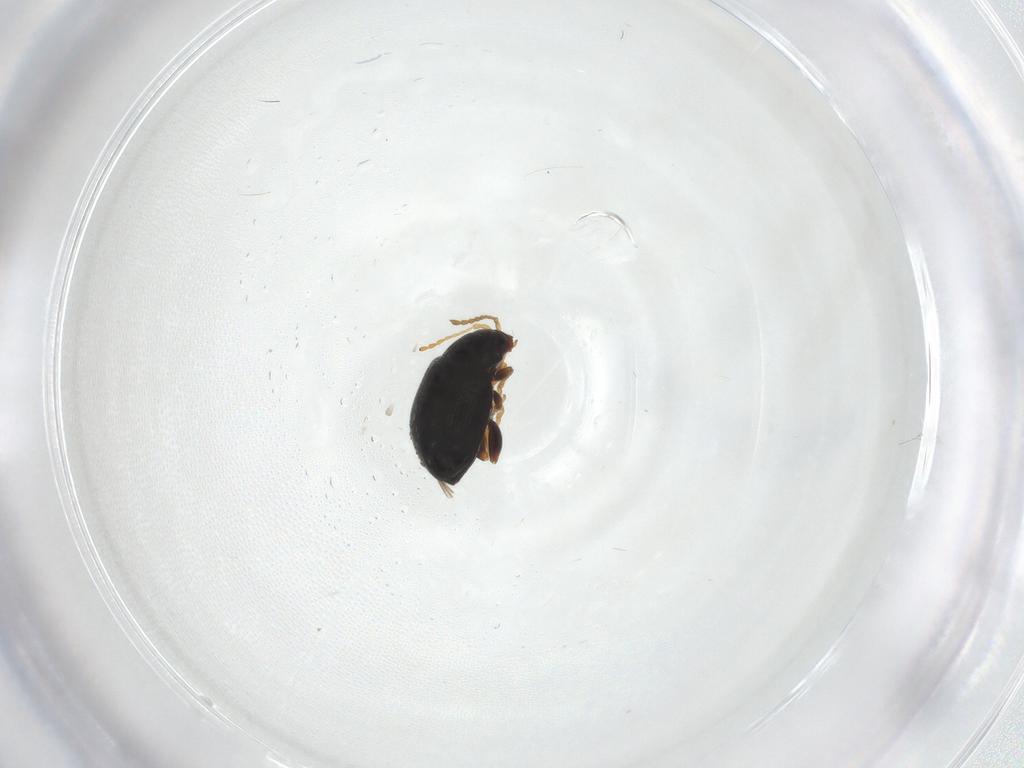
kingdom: Animalia
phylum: Arthropoda
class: Insecta
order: Coleoptera
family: Chrysomelidae
